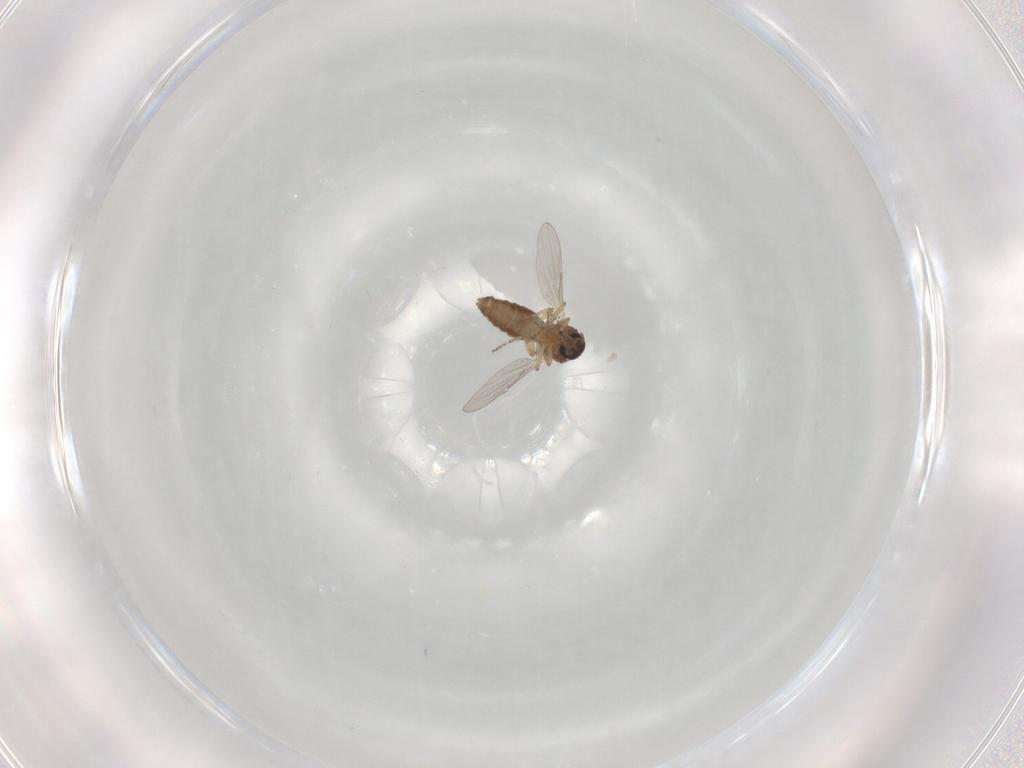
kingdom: Animalia
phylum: Arthropoda
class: Insecta
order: Diptera
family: Ceratopogonidae
